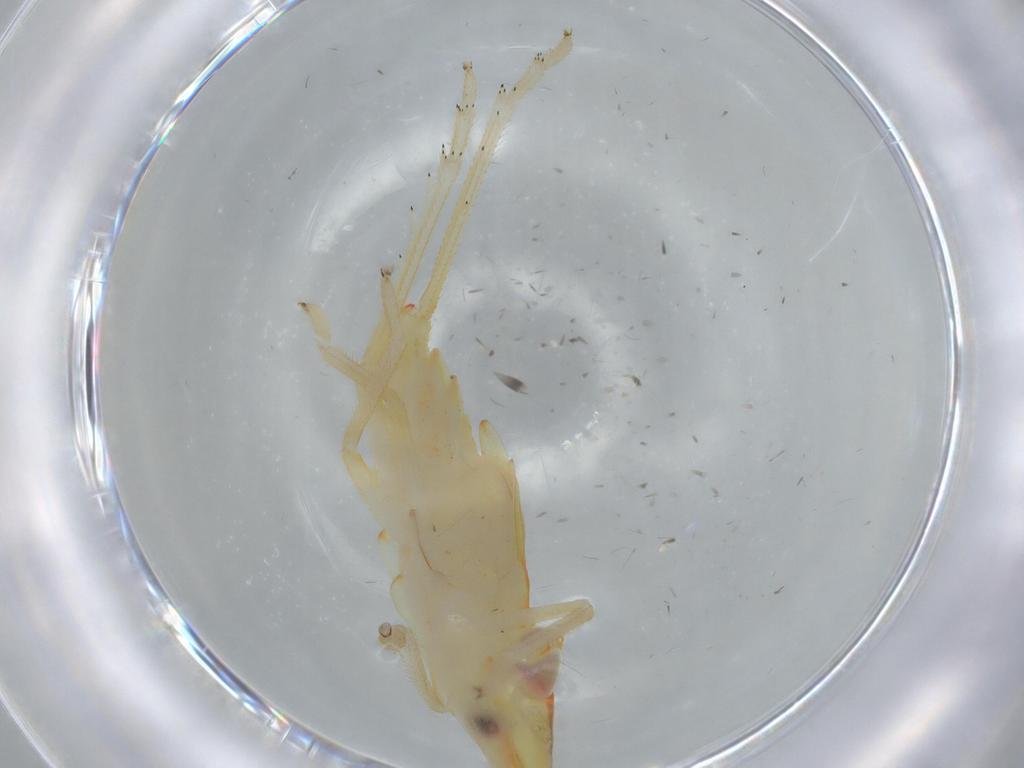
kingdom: Animalia
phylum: Arthropoda
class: Insecta
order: Hemiptera
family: Tropiduchidae
